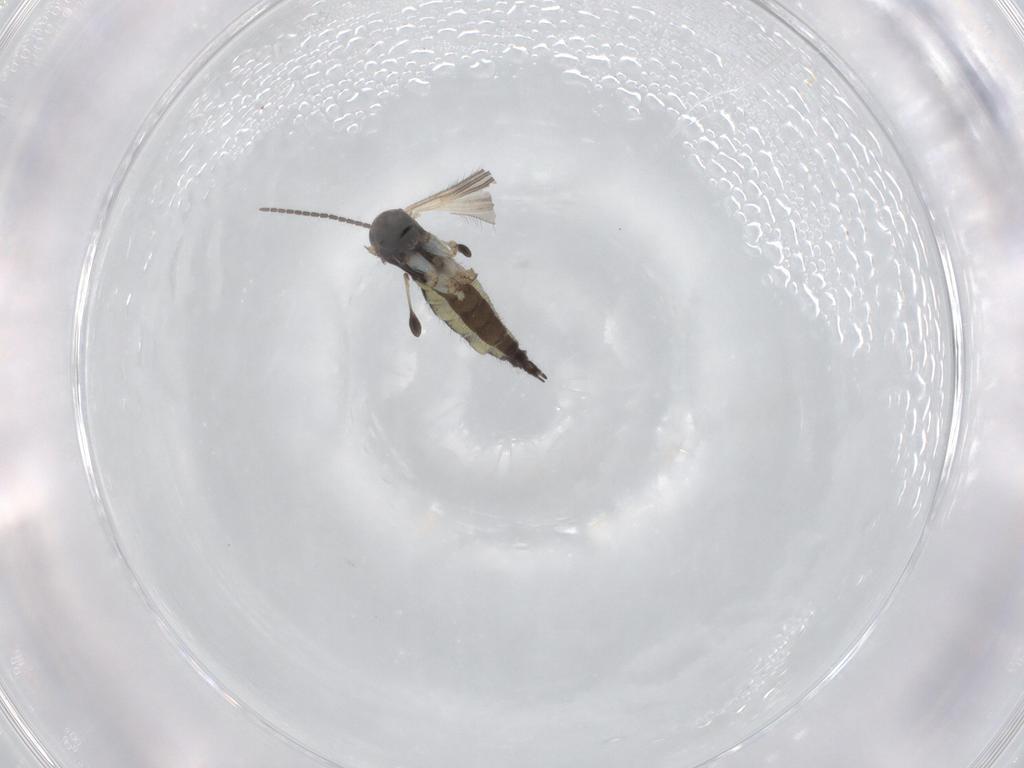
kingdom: Animalia
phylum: Arthropoda
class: Insecta
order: Diptera
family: Sciaridae
